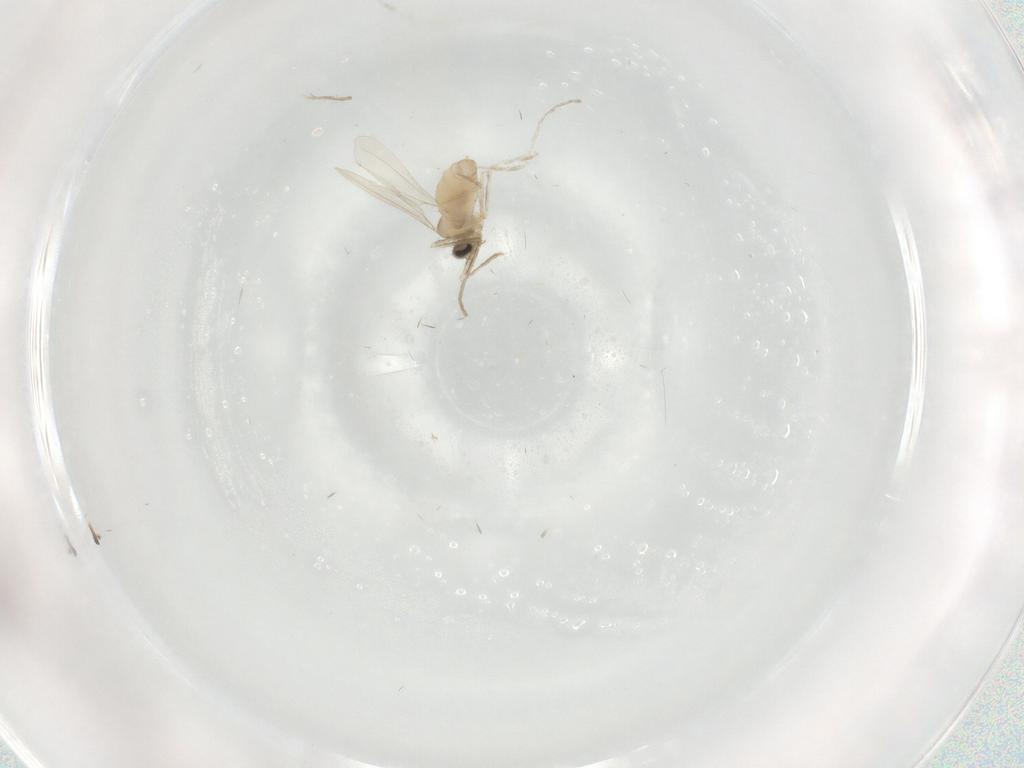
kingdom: Animalia
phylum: Arthropoda
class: Insecta
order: Diptera
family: Cecidomyiidae
